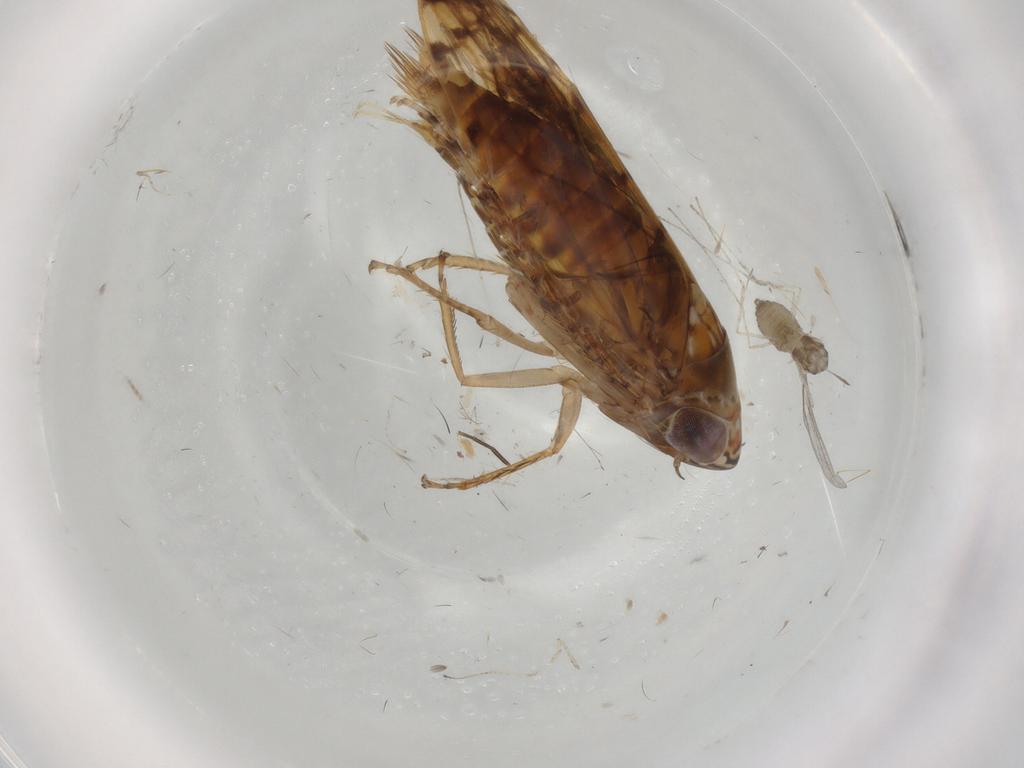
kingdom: Animalia
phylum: Arthropoda
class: Insecta
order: Hemiptera
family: Cicadellidae
